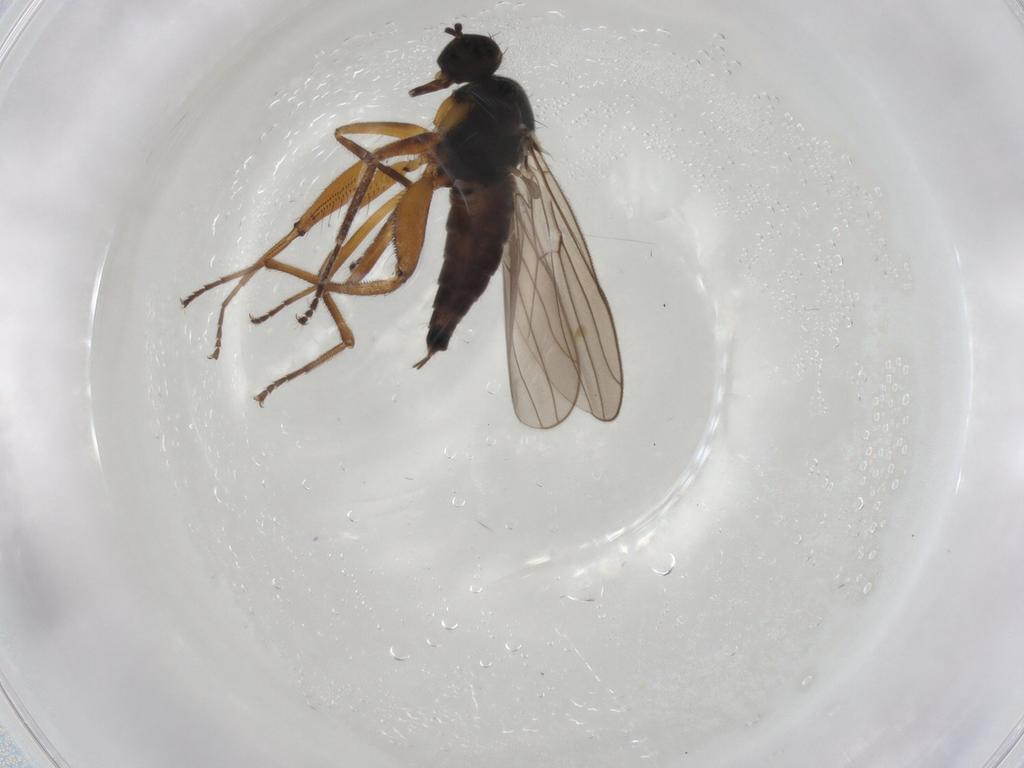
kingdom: Animalia
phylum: Arthropoda
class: Insecta
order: Diptera
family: Hybotidae
